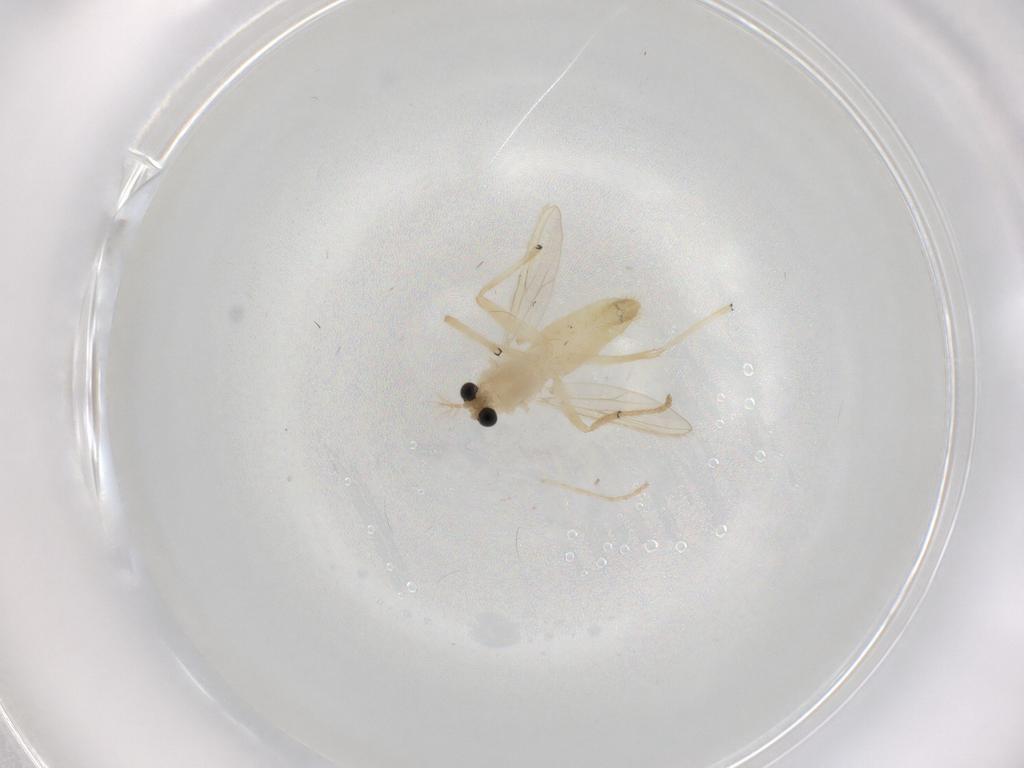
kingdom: Animalia
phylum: Arthropoda
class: Insecta
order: Diptera
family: Chironomidae
